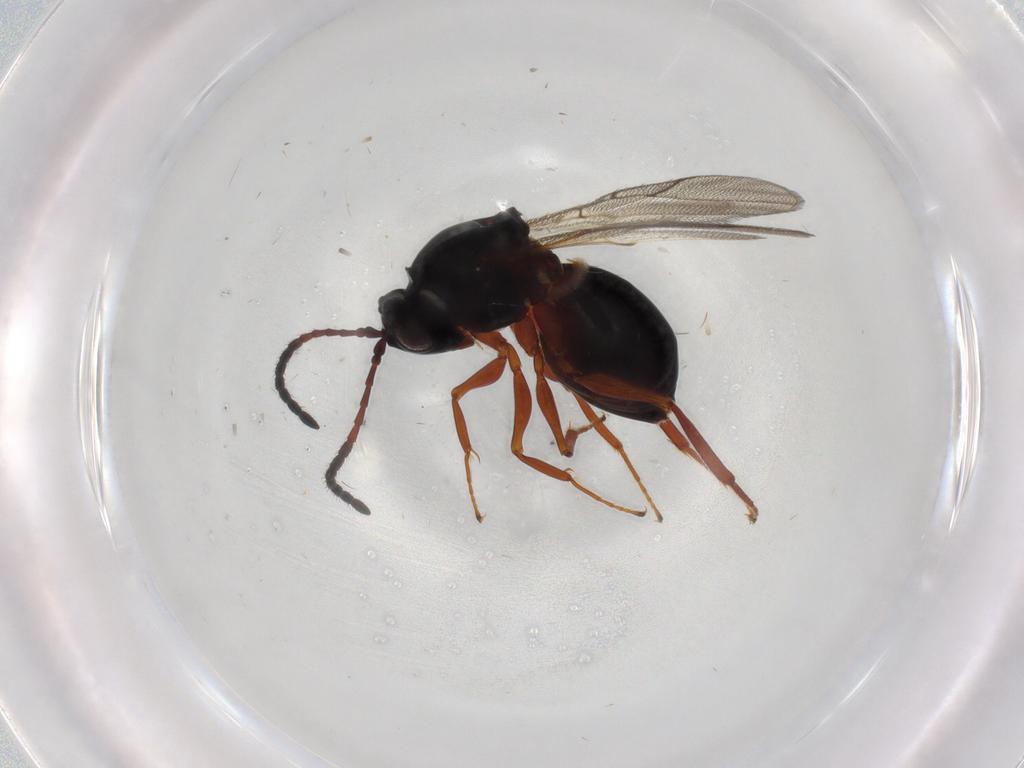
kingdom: Animalia
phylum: Arthropoda
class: Insecta
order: Hymenoptera
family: Figitidae
